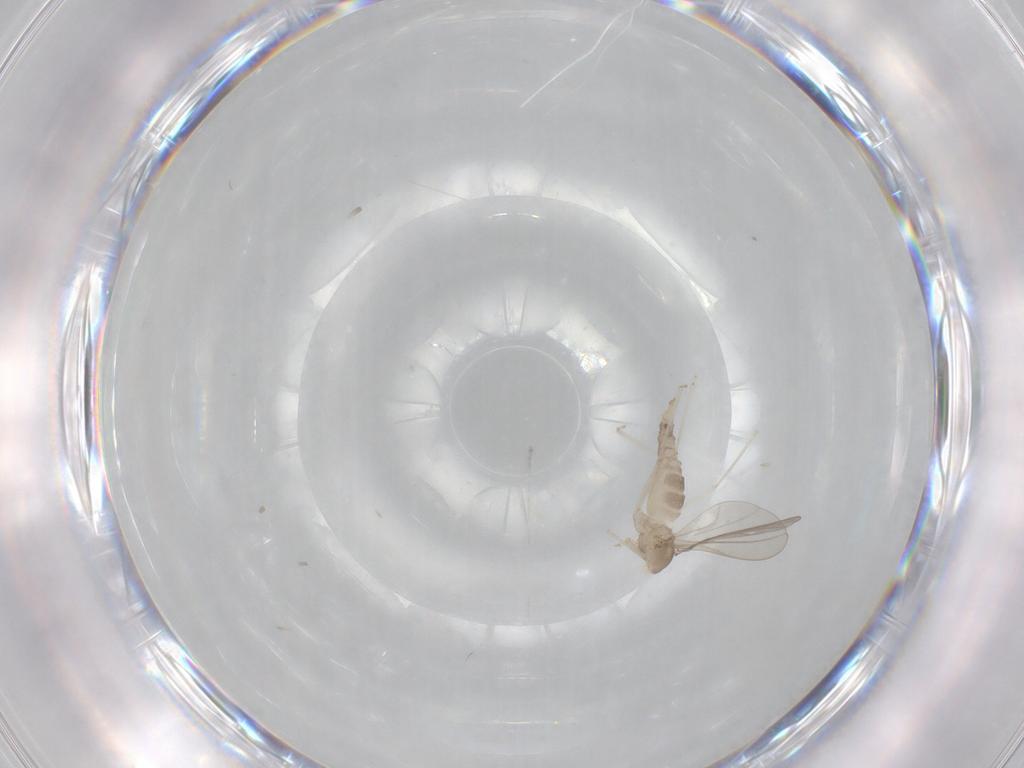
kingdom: Animalia
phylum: Arthropoda
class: Insecta
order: Diptera
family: Cecidomyiidae
